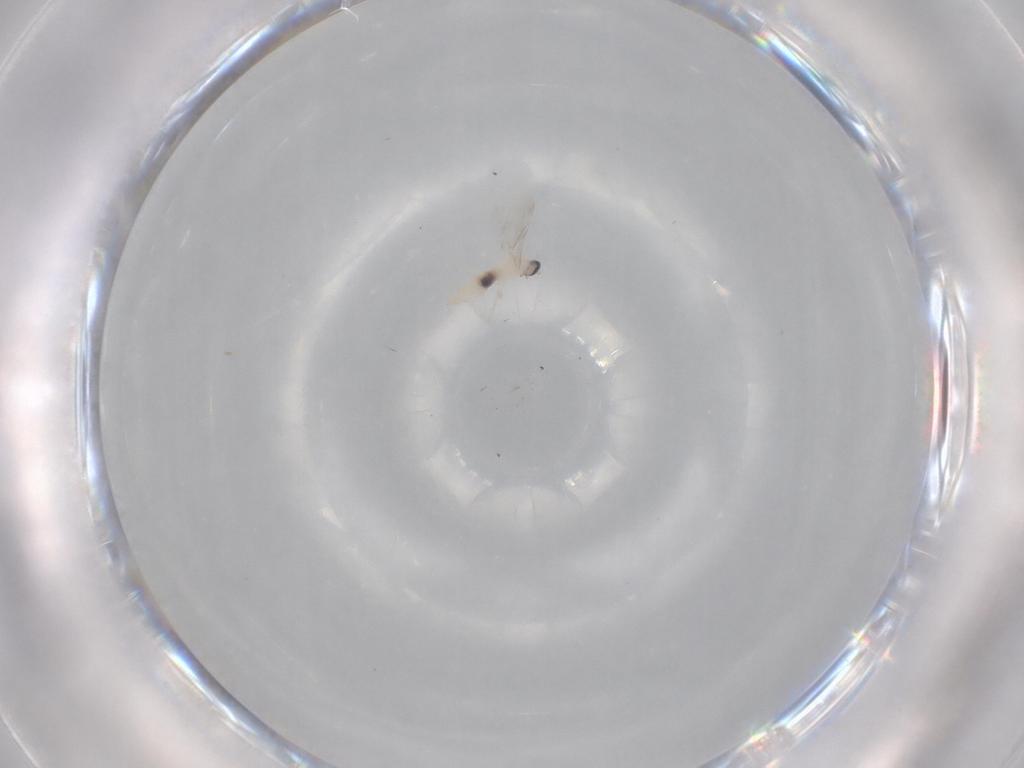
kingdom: Animalia
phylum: Arthropoda
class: Insecta
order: Diptera
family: Cecidomyiidae
